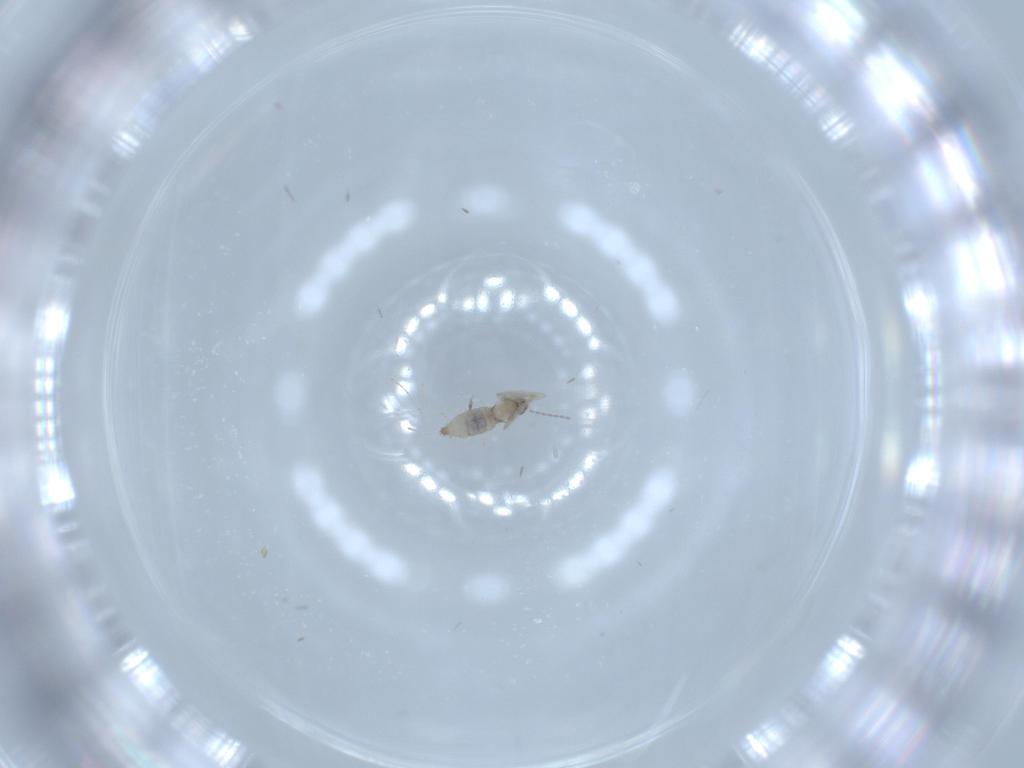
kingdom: Animalia
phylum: Arthropoda
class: Insecta
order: Diptera
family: Cecidomyiidae
